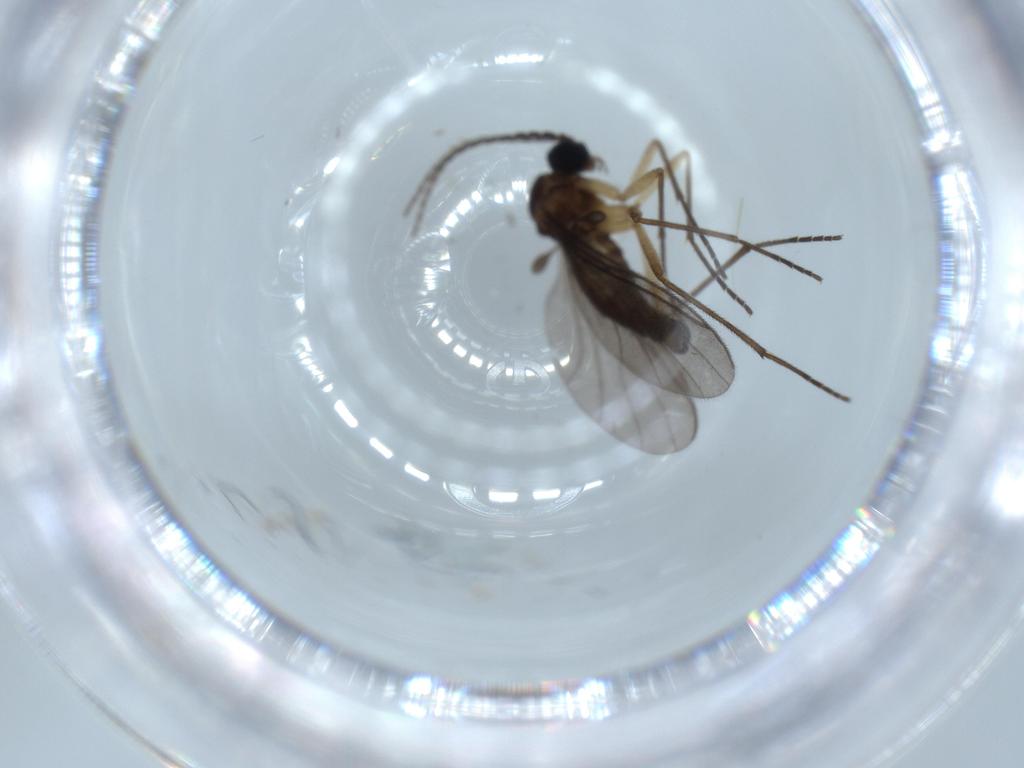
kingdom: Animalia
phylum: Arthropoda
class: Insecta
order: Diptera
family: Sciaridae
